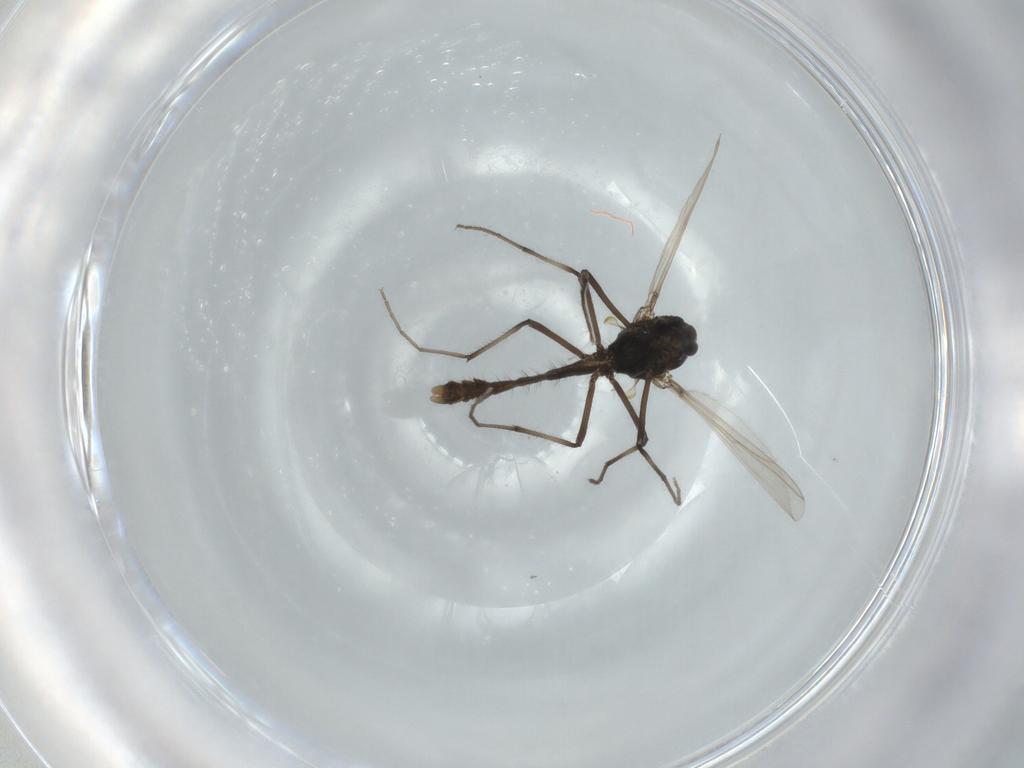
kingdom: Animalia
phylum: Arthropoda
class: Insecta
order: Diptera
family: Chironomidae
